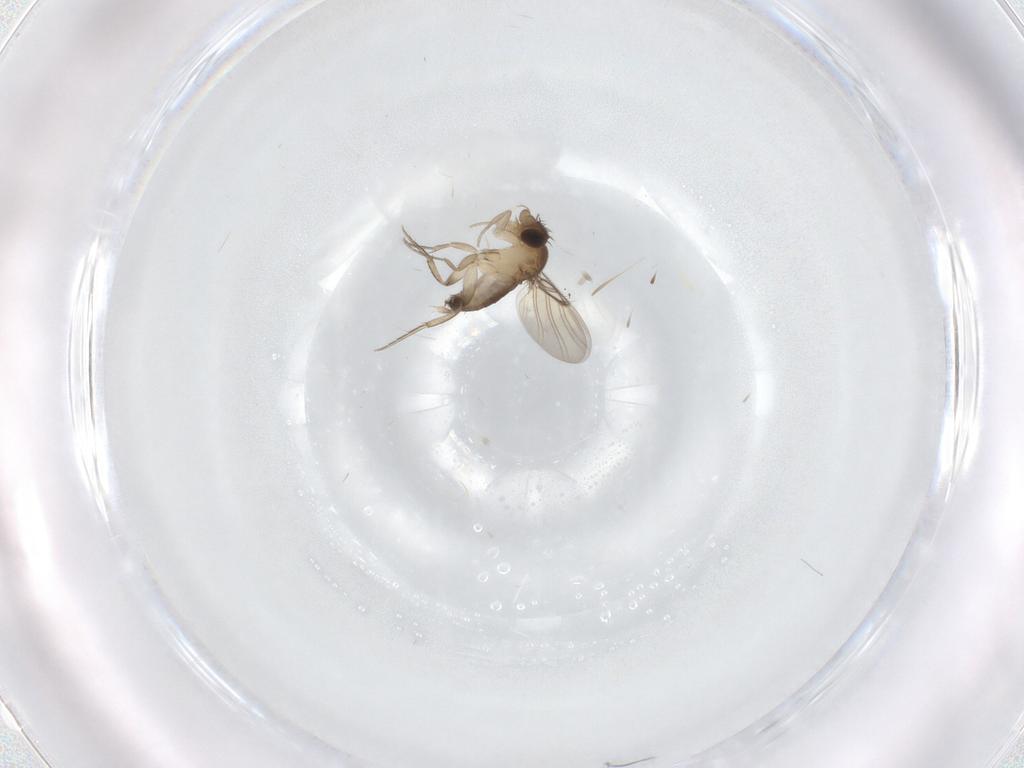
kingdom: Animalia
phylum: Arthropoda
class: Insecta
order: Diptera
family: Phoridae
